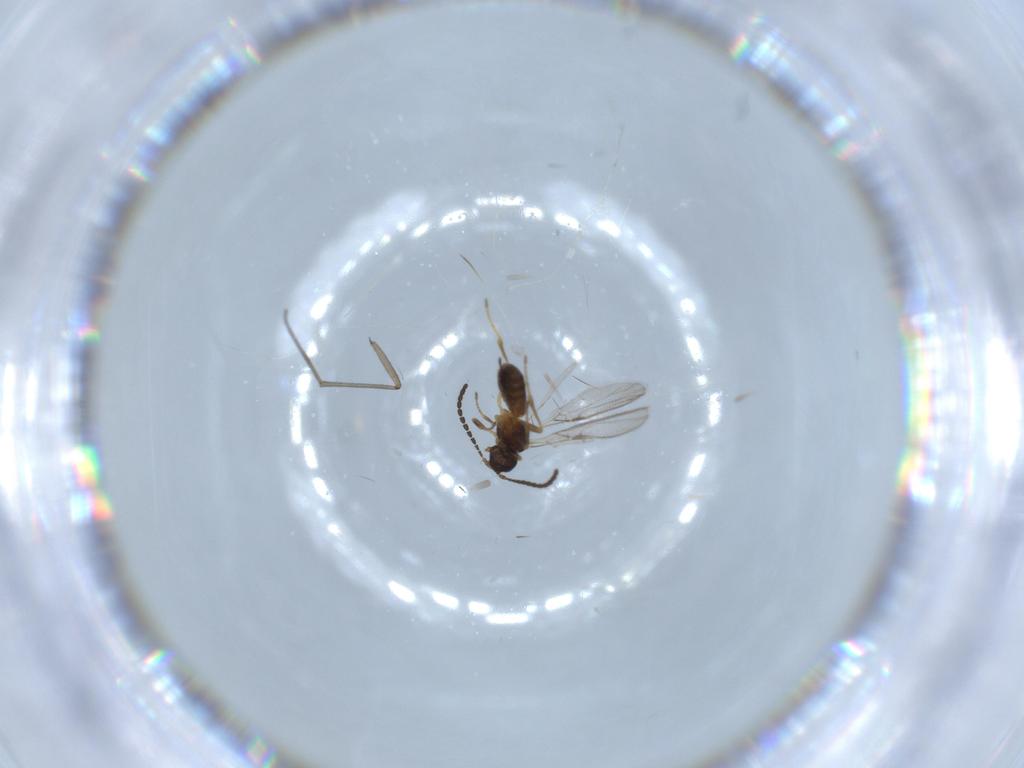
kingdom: Animalia
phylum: Arthropoda
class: Insecta
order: Hymenoptera
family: Braconidae
